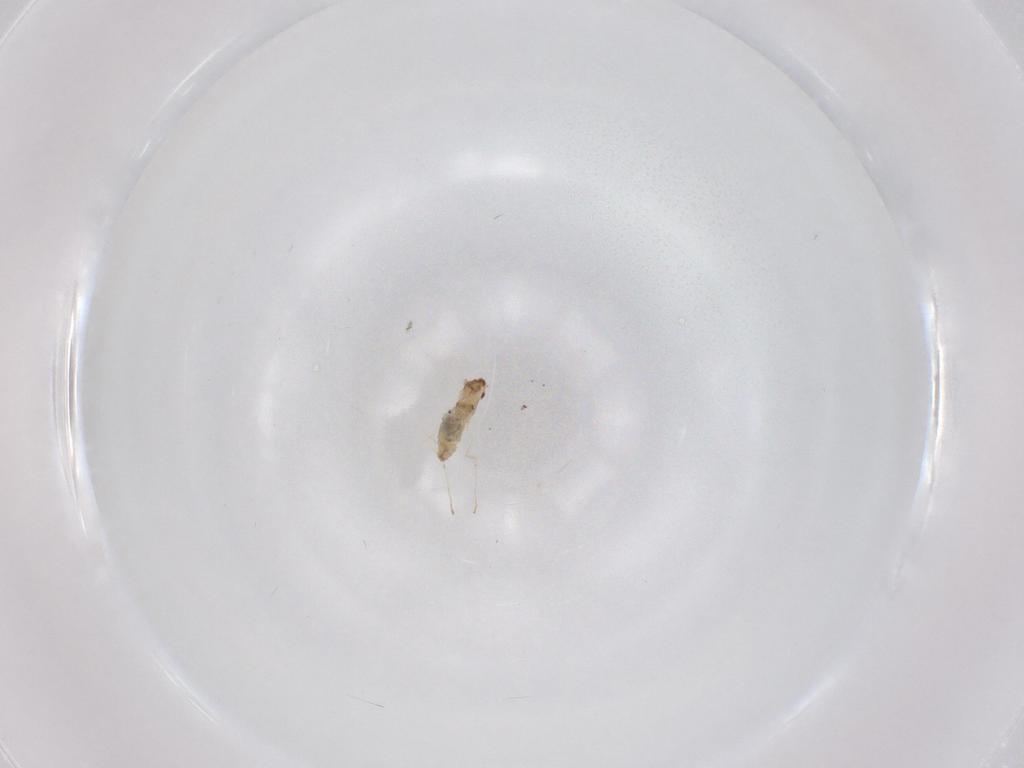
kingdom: Animalia
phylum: Arthropoda
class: Insecta
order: Diptera
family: Cecidomyiidae
